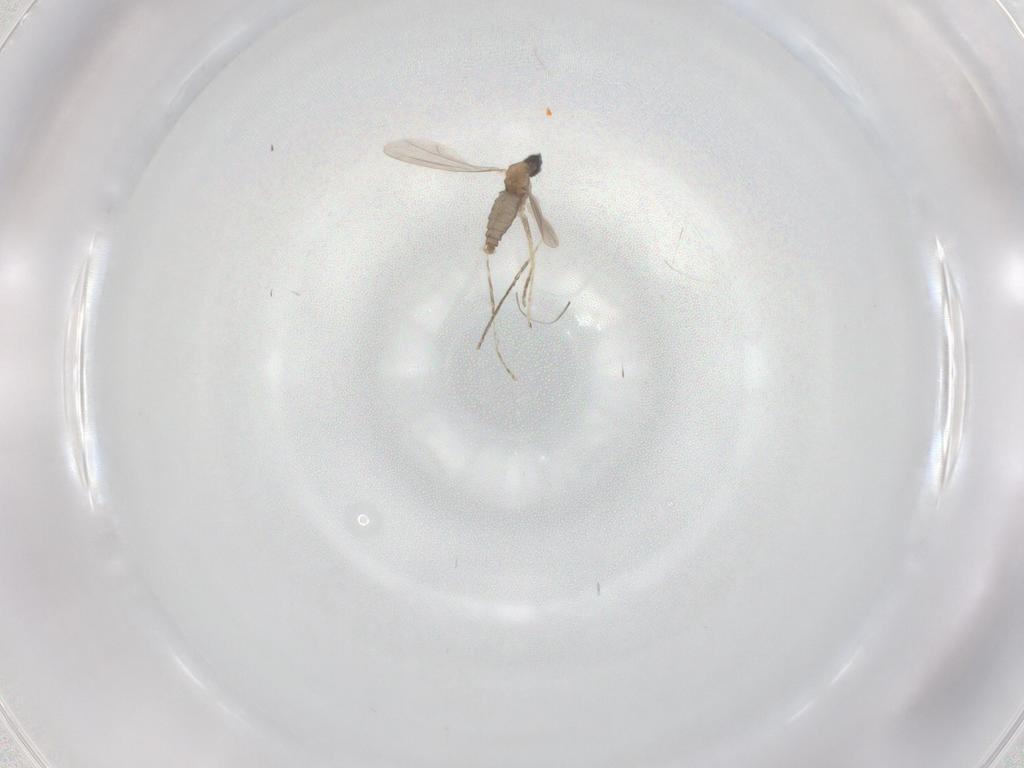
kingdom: Animalia
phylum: Arthropoda
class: Insecta
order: Diptera
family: Cecidomyiidae
